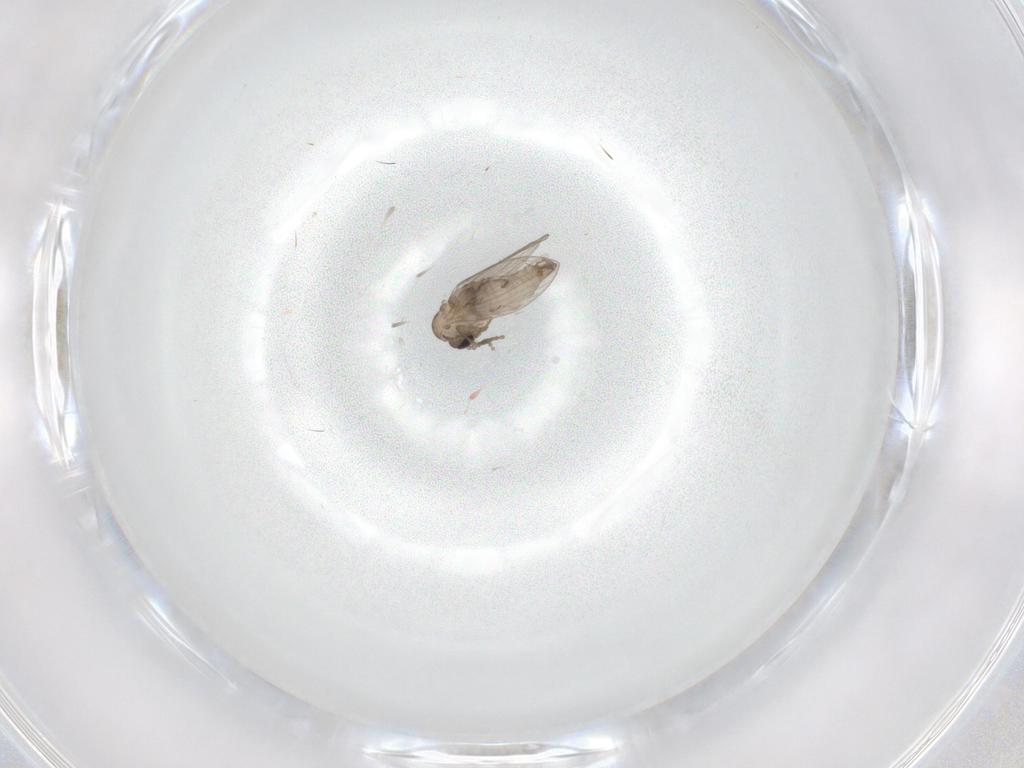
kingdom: Animalia
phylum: Arthropoda
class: Insecta
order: Diptera
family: Psychodidae
